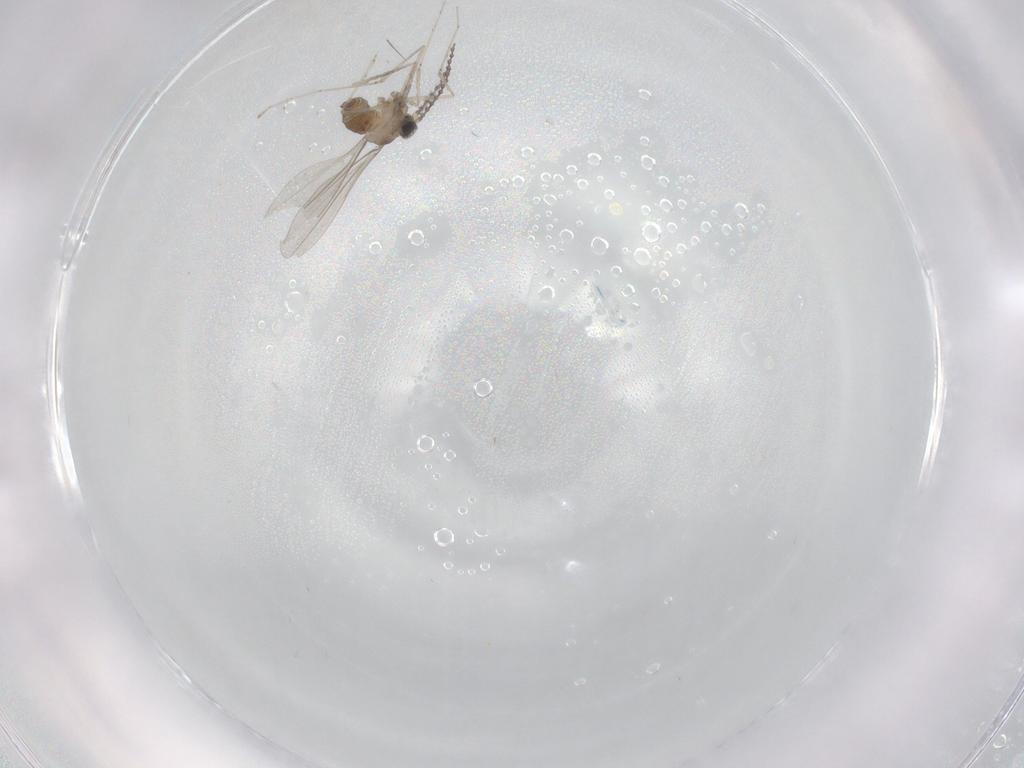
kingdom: Animalia
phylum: Arthropoda
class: Insecta
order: Diptera
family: Cecidomyiidae
